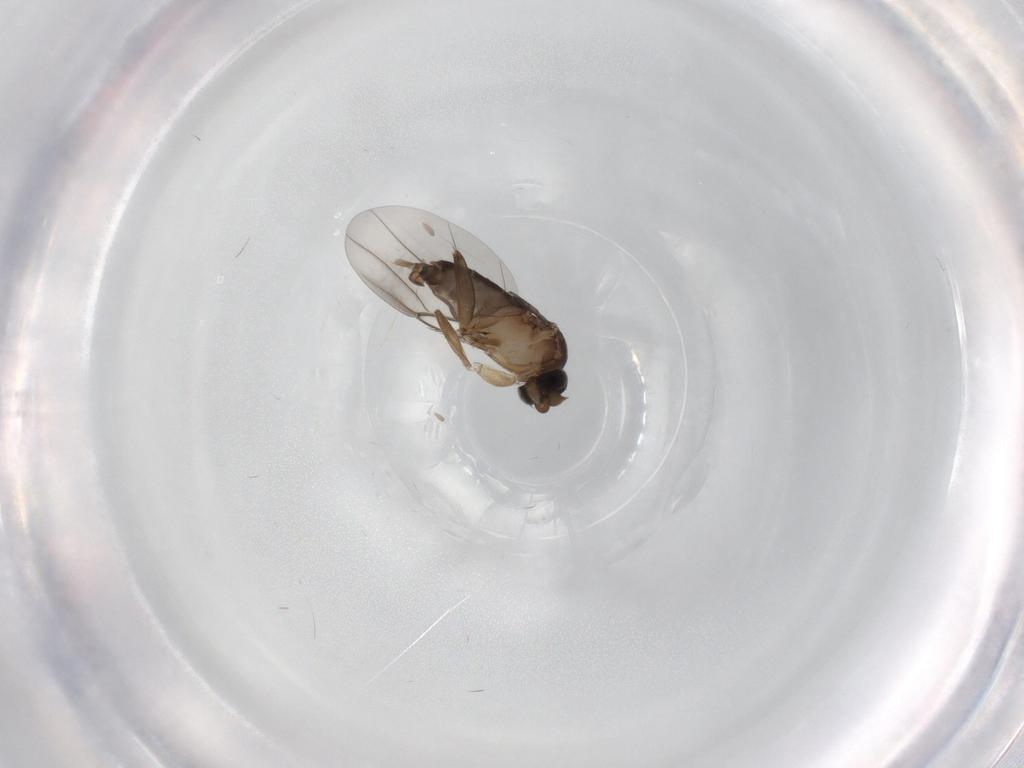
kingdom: Animalia
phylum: Arthropoda
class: Insecta
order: Diptera
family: Phoridae
